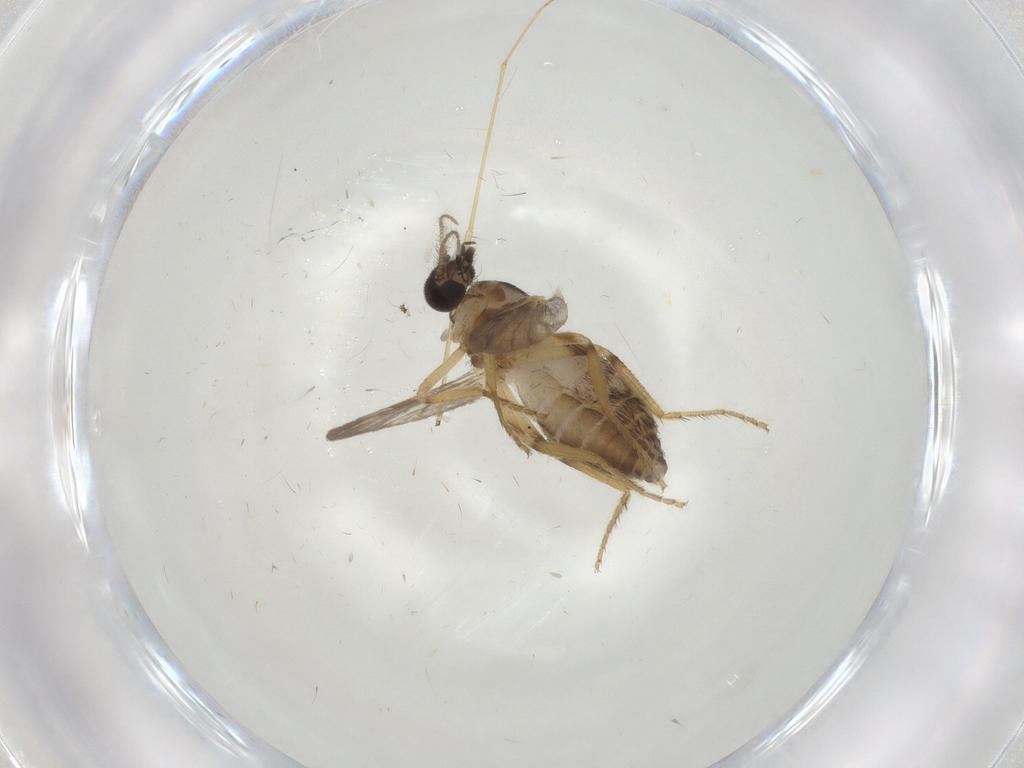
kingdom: Animalia
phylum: Arthropoda
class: Insecta
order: Diptera
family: Ceratopogonidae
